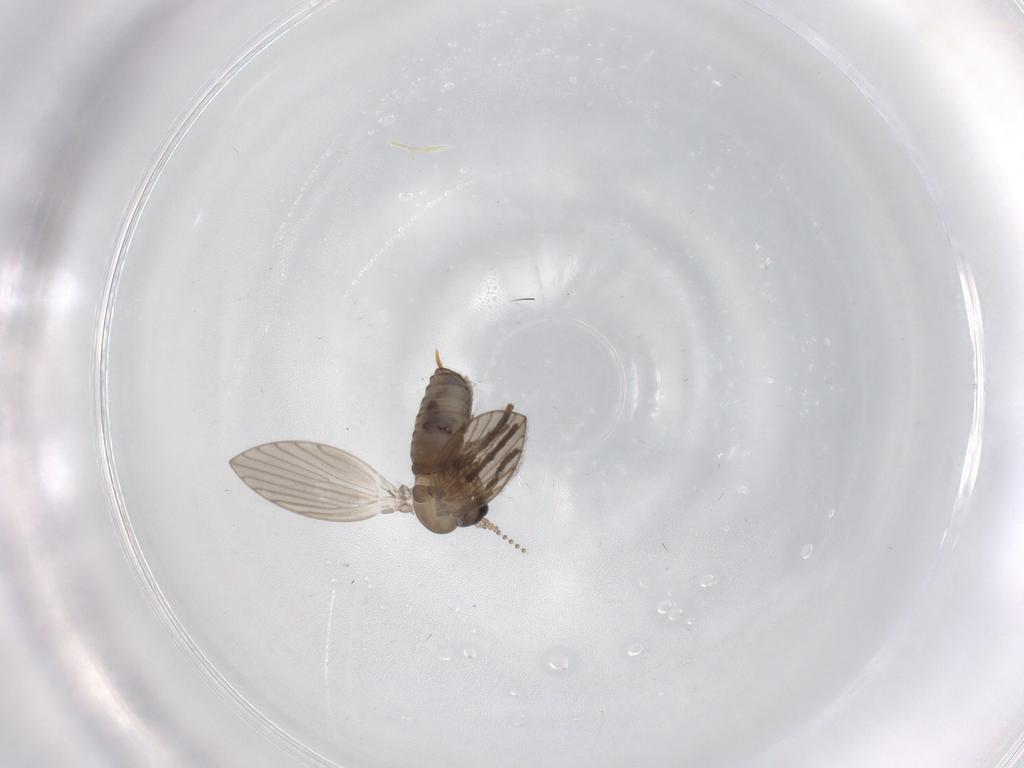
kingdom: Animalia
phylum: Arthropoda
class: Insecta
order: Diptera
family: Psychodidae
